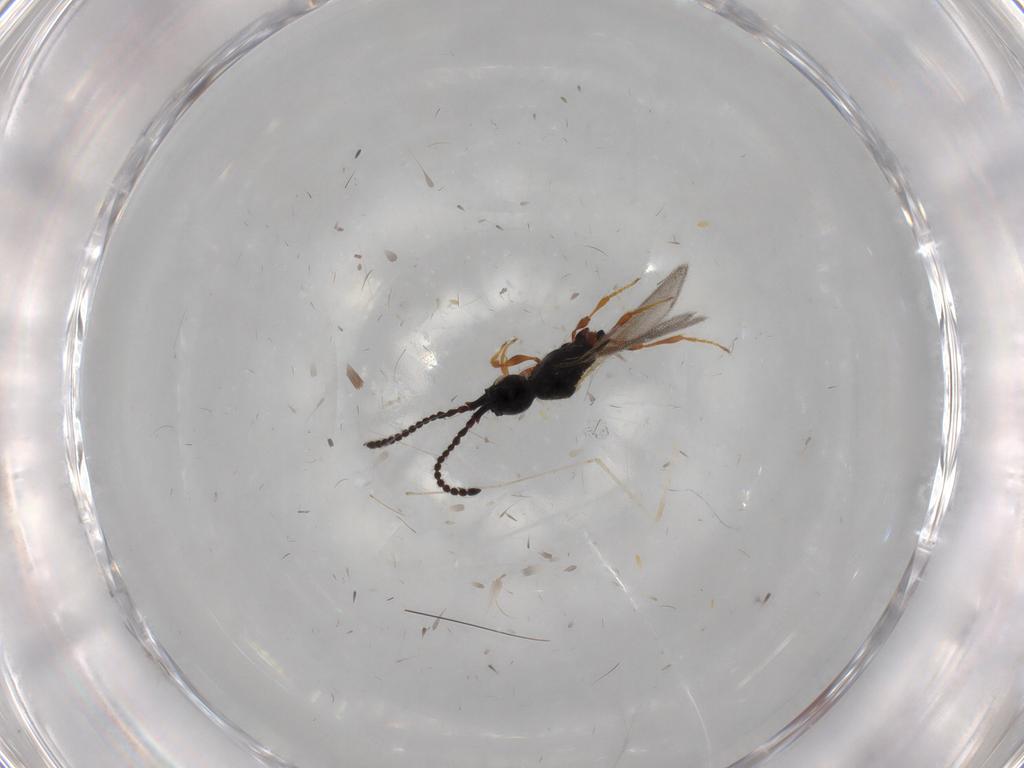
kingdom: Animalia
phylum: Arthropoda
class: Insecta
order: Hymenoptera
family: Diapriidae
